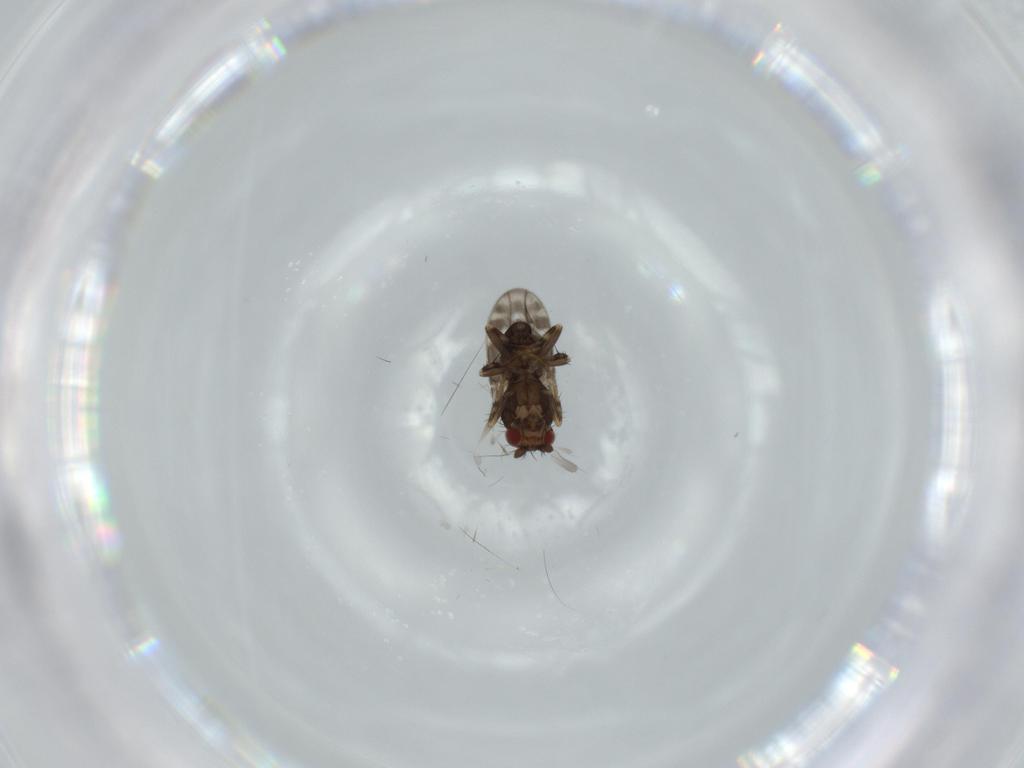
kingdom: Animalia
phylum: Arthropoda
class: Insecta
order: Diptera
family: Sphaeroceridae
